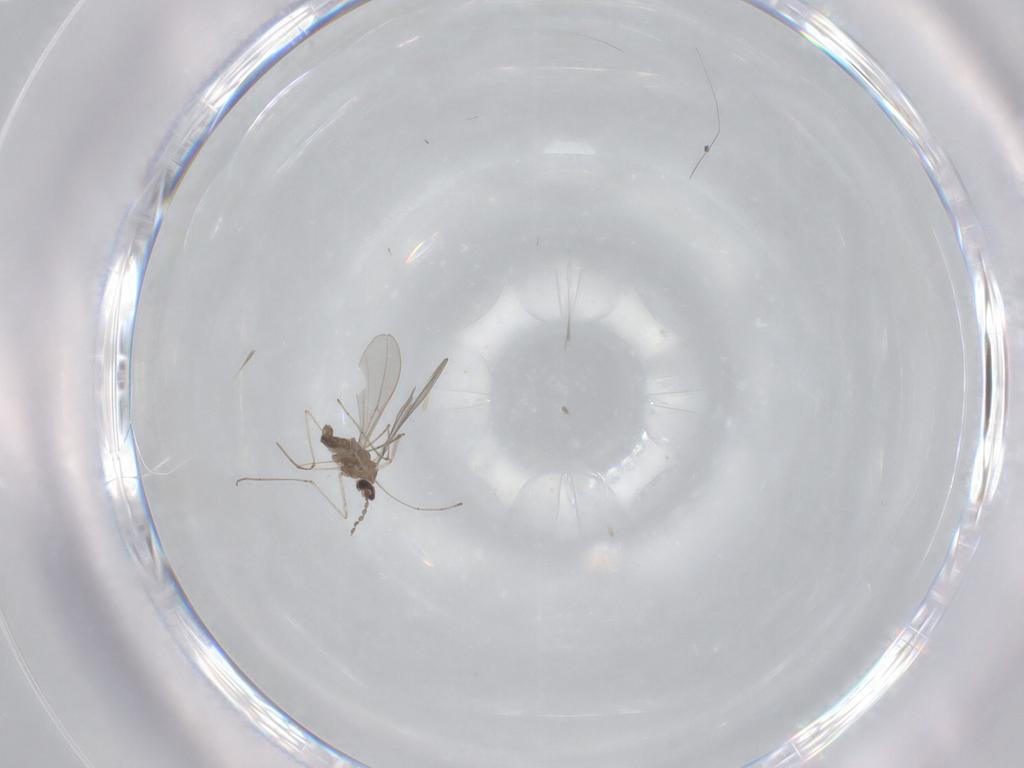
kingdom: Animalia
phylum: Arthropoda
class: Insecta
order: Diptera
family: Cecidomyiidae
